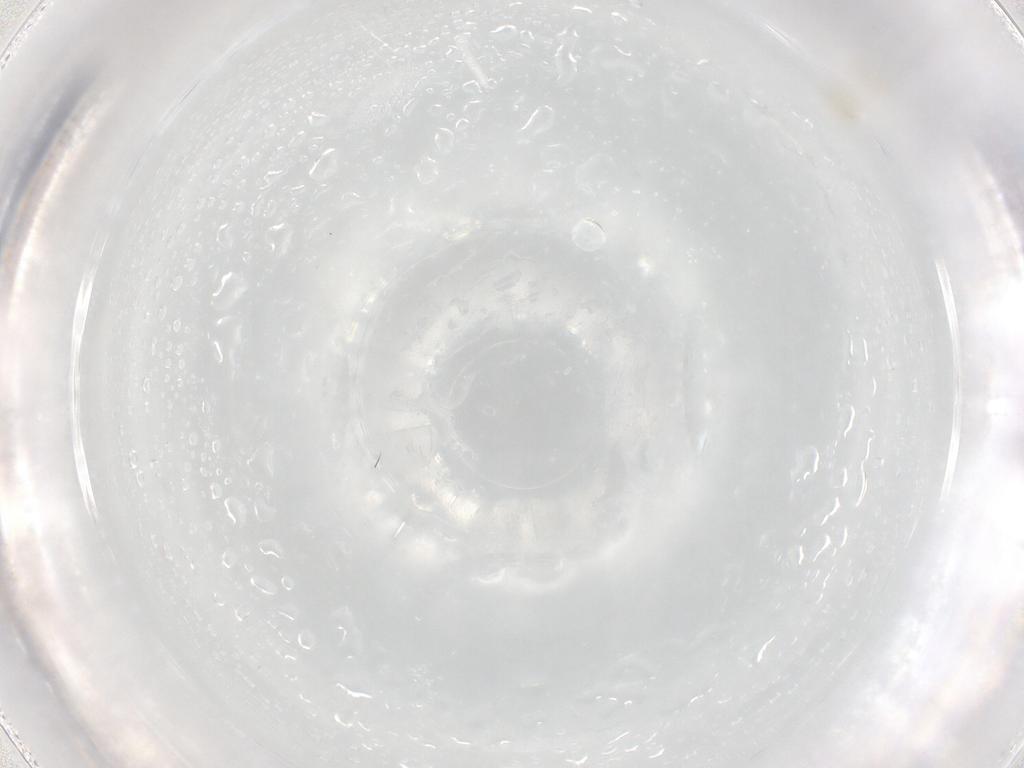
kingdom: Animalia
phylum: Arthropoda
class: Insecta
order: Thysanoptera
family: Thripidae
